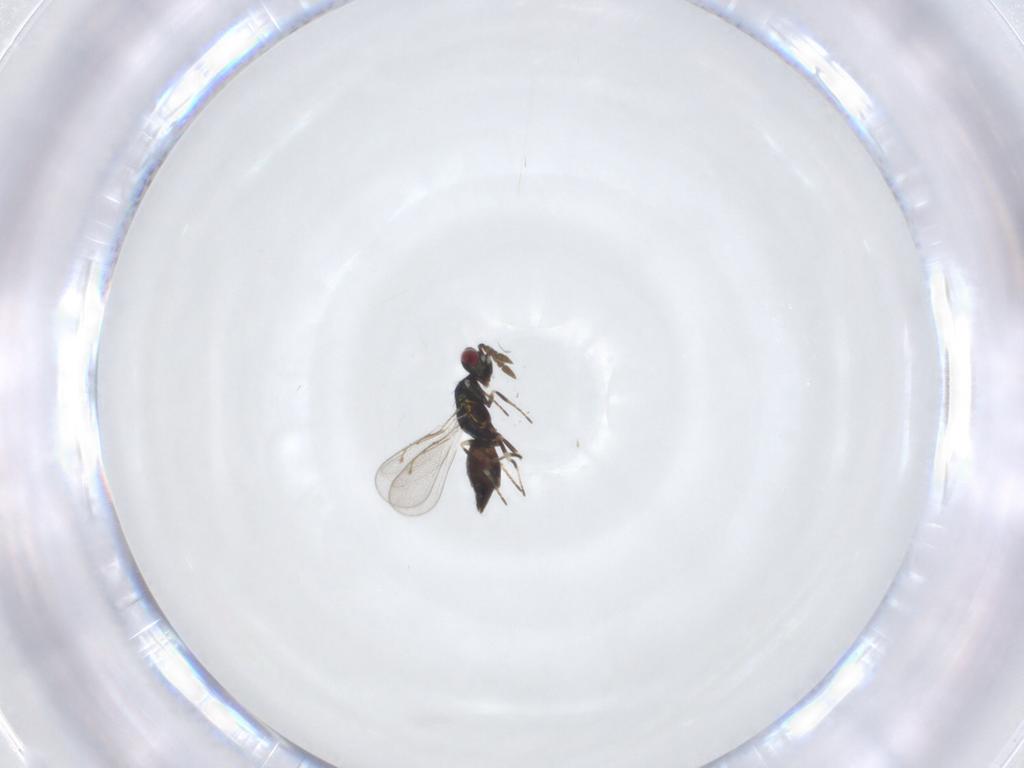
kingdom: Animalia
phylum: Arthropoda
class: Insecta
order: Hymenoptera
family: Eulophidae
